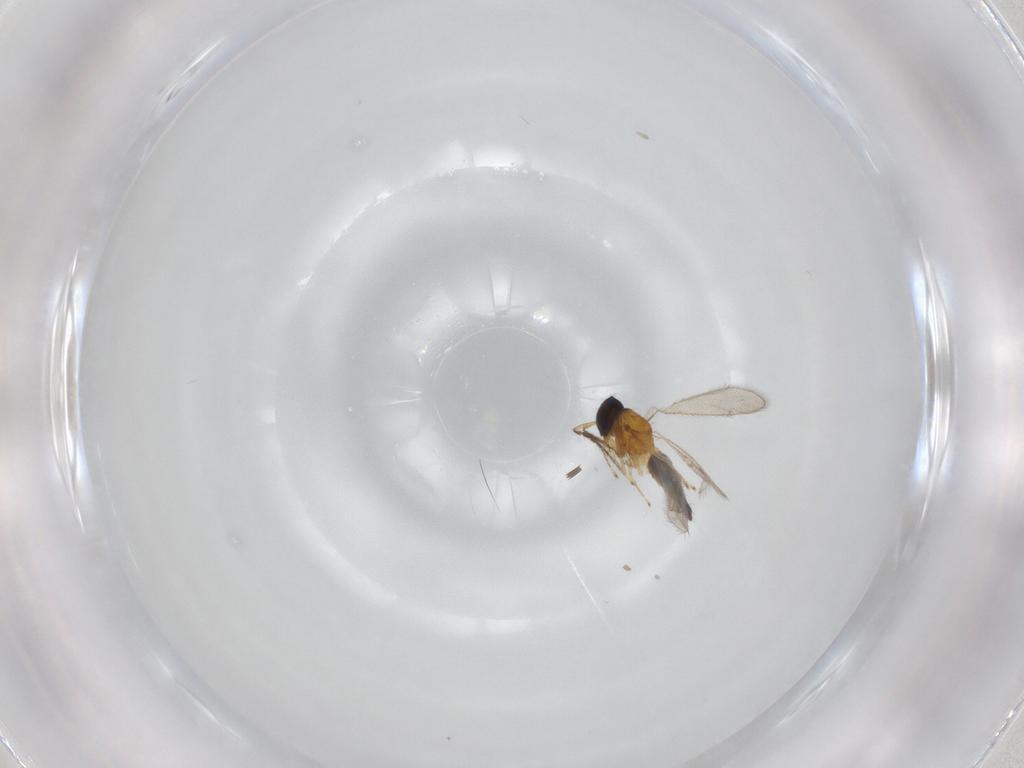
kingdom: Animalia
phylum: Arthropoda
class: Insecta
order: Hymenoptera
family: Eulophidae
